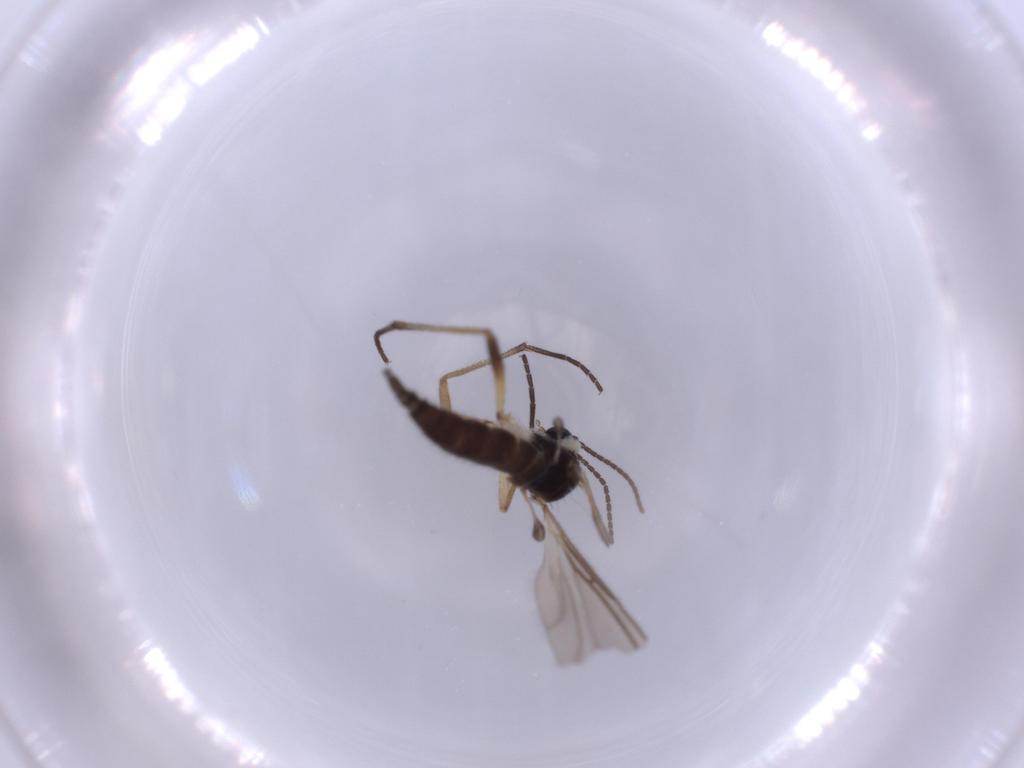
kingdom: Animalia
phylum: Arthropoda
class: Insecta
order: Diptera
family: Sciaridae
